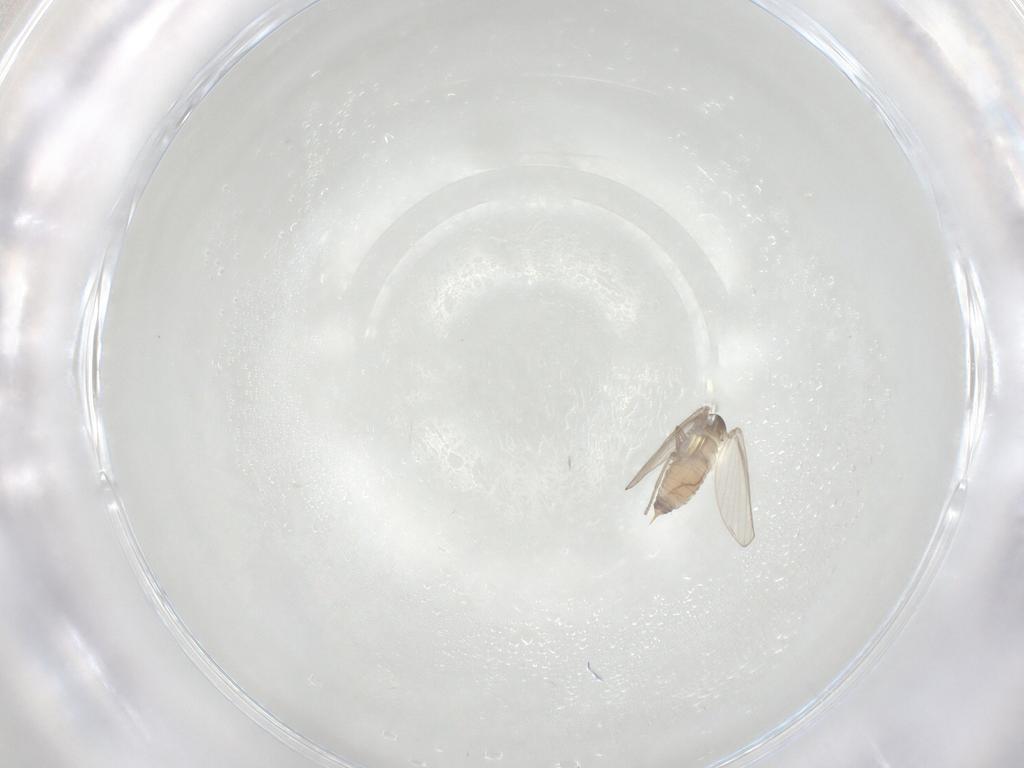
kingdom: Animalia
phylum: Arthropoda
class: Insecta
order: Diptera
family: Psychodidae
